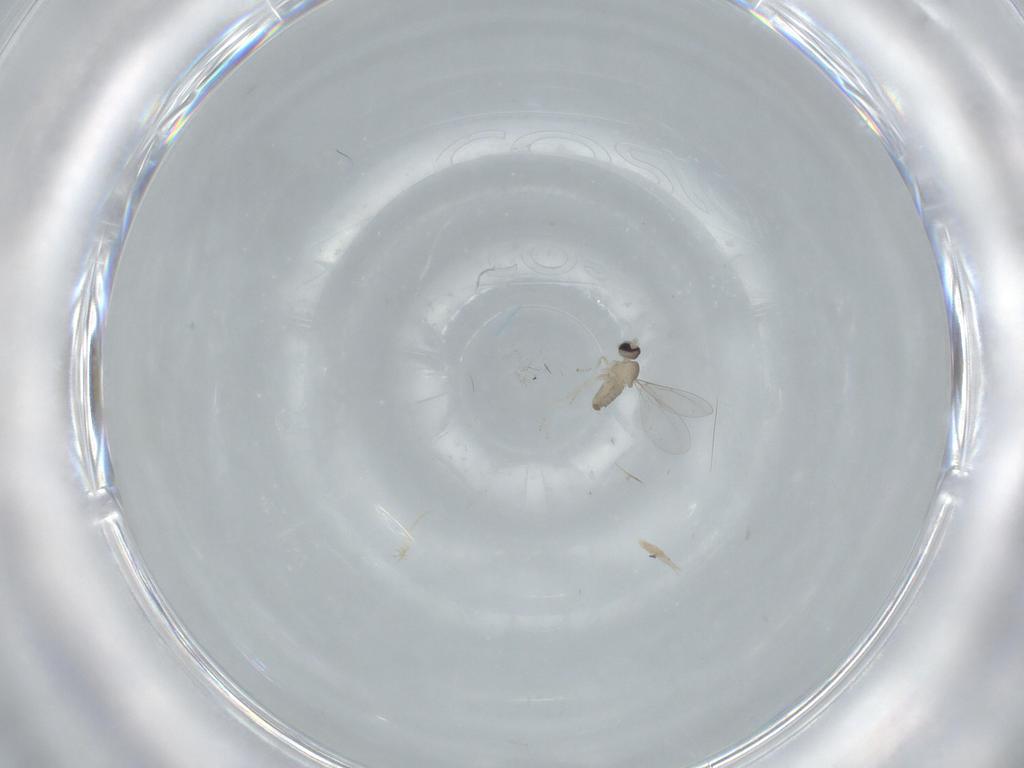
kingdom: Animalia
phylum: Arthropoda
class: Insecta
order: Diptera
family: Cecidomyiidae
